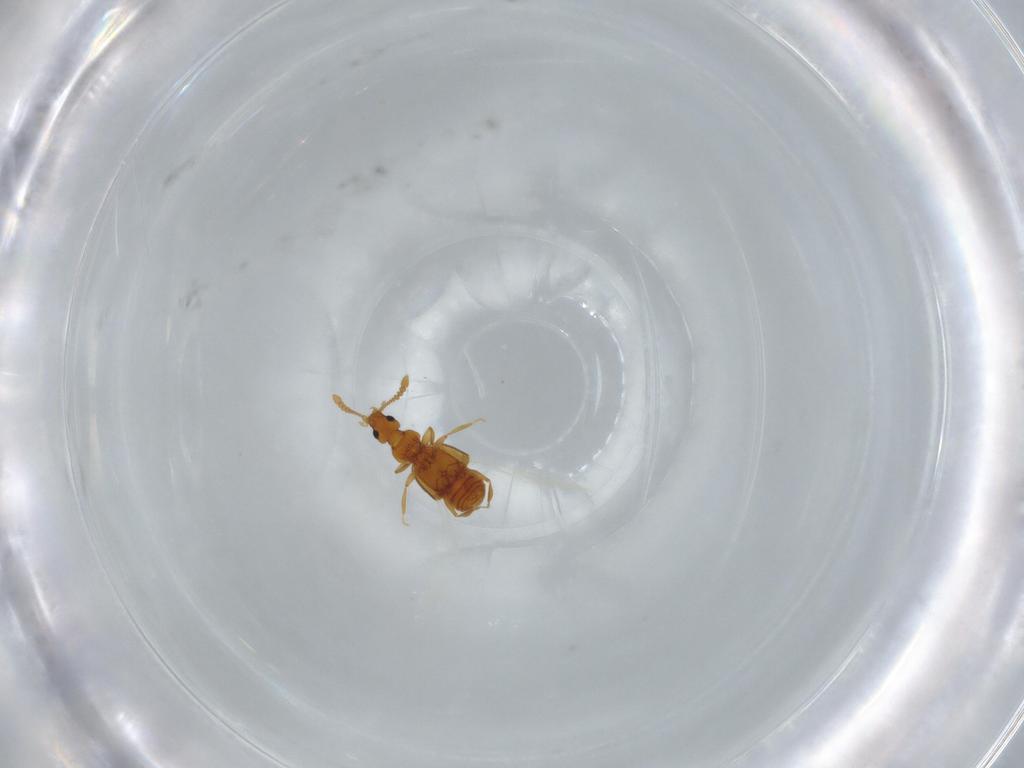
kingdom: Animalia
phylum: Arthropoda
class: Insecta
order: Coleoptera
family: Staphylinidae
